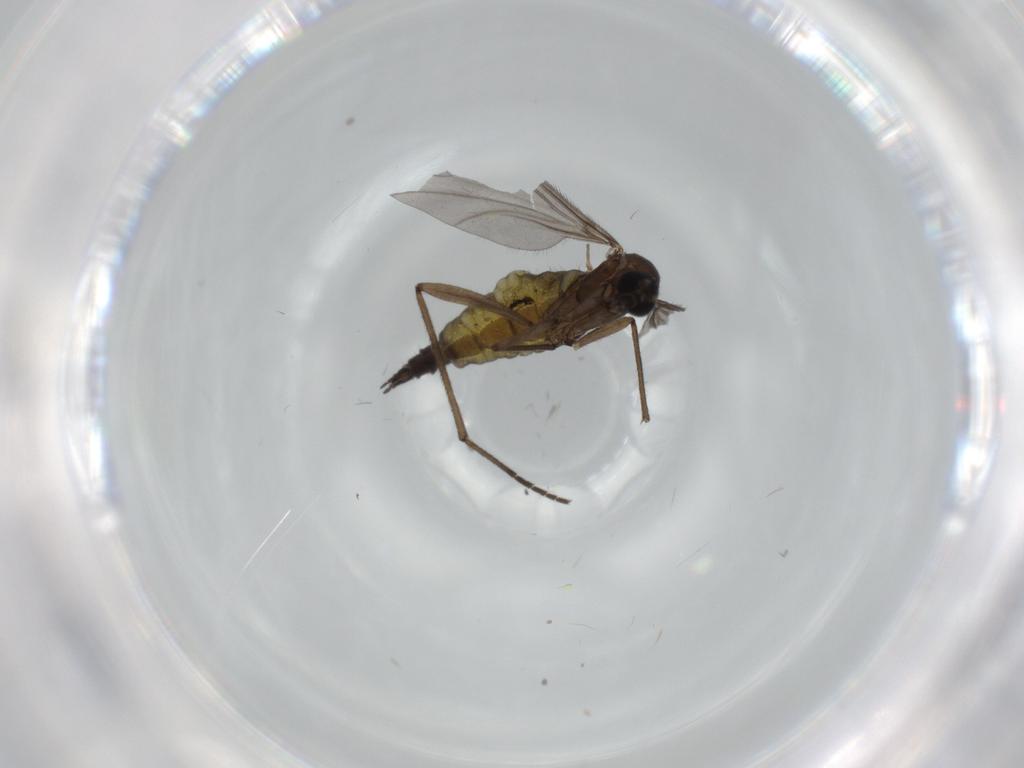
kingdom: Animalia
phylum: Arthropoda
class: Insecta
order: Diptera
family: Sciaridae
